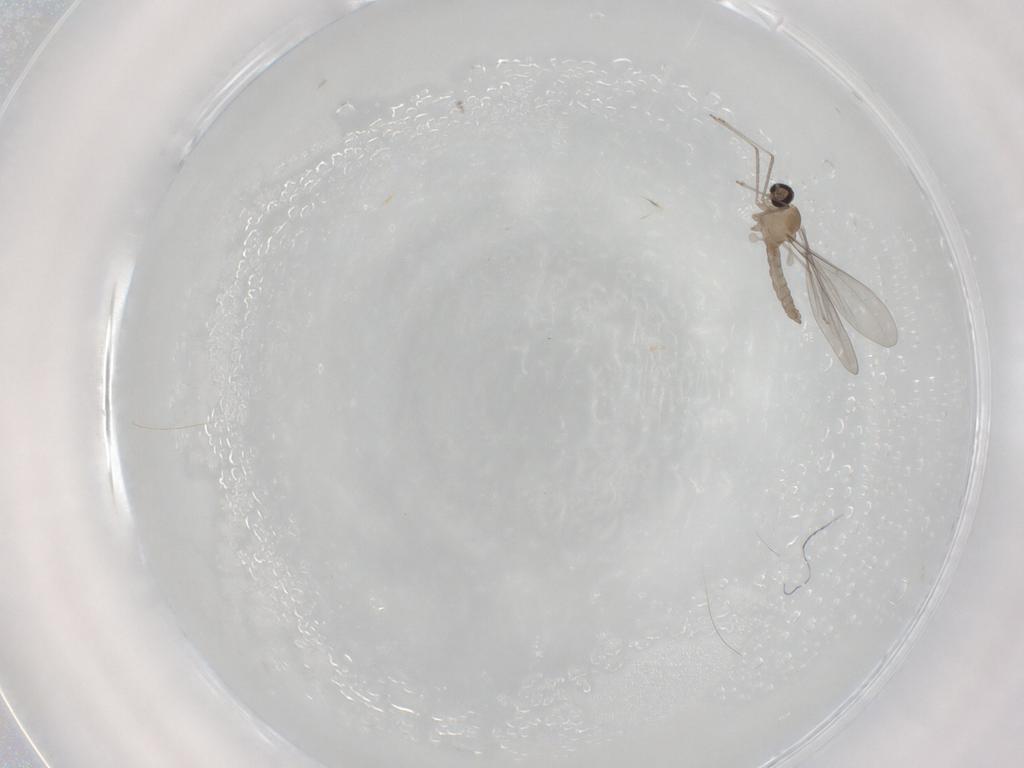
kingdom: Animalia
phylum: Arthropoda
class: Insecta
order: Diptera
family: Cecidomyiidae
